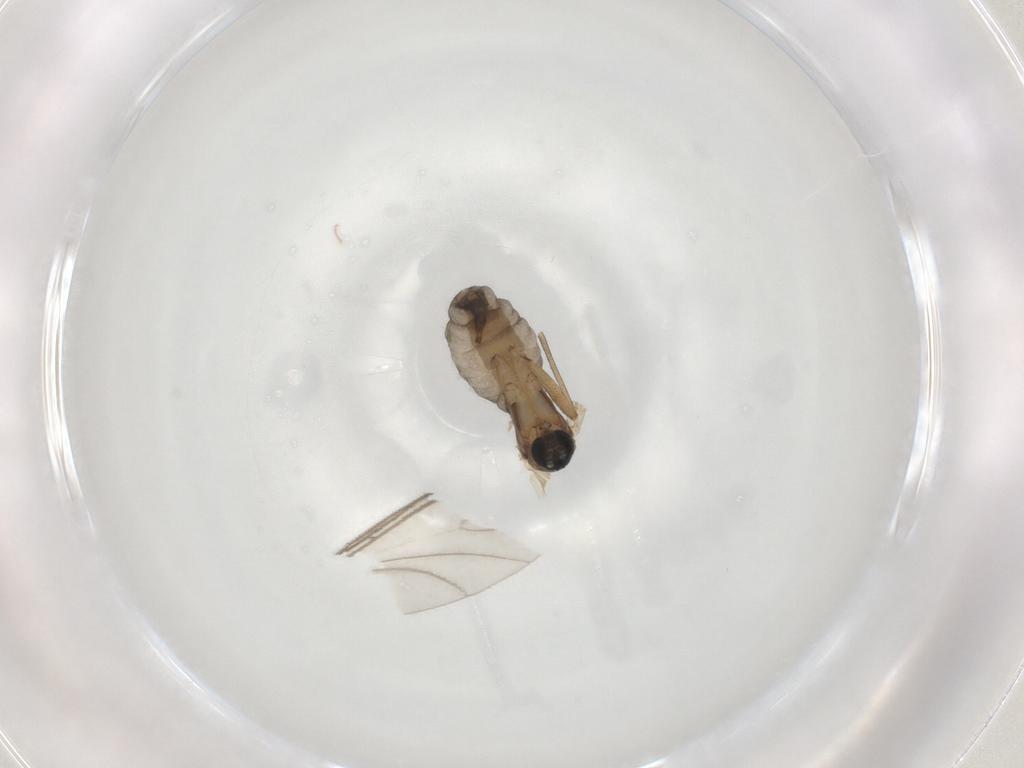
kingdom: Animalia
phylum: Arthropoda
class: Insecta
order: Diptera
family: Sciaridae
